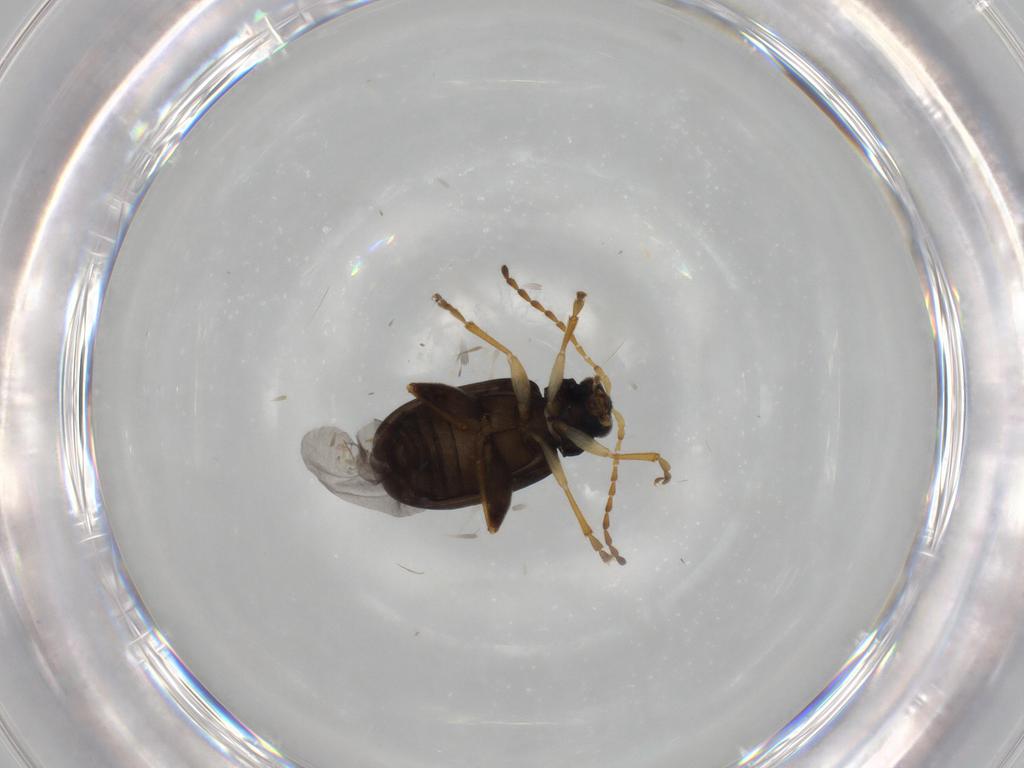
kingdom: Animalia
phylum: Arthropoda
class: Insecta
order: Coleoptera
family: Chrysomelidae
